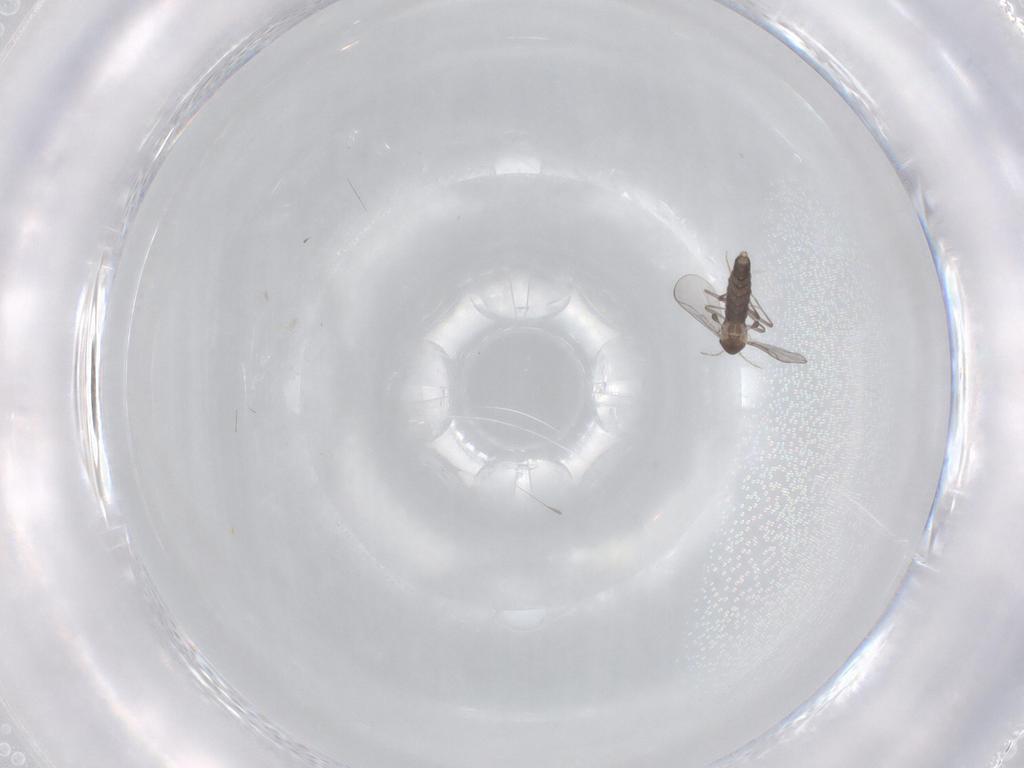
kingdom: Animalia
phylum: Arthropoda
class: Insecta
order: Diptera
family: Chironomidae
